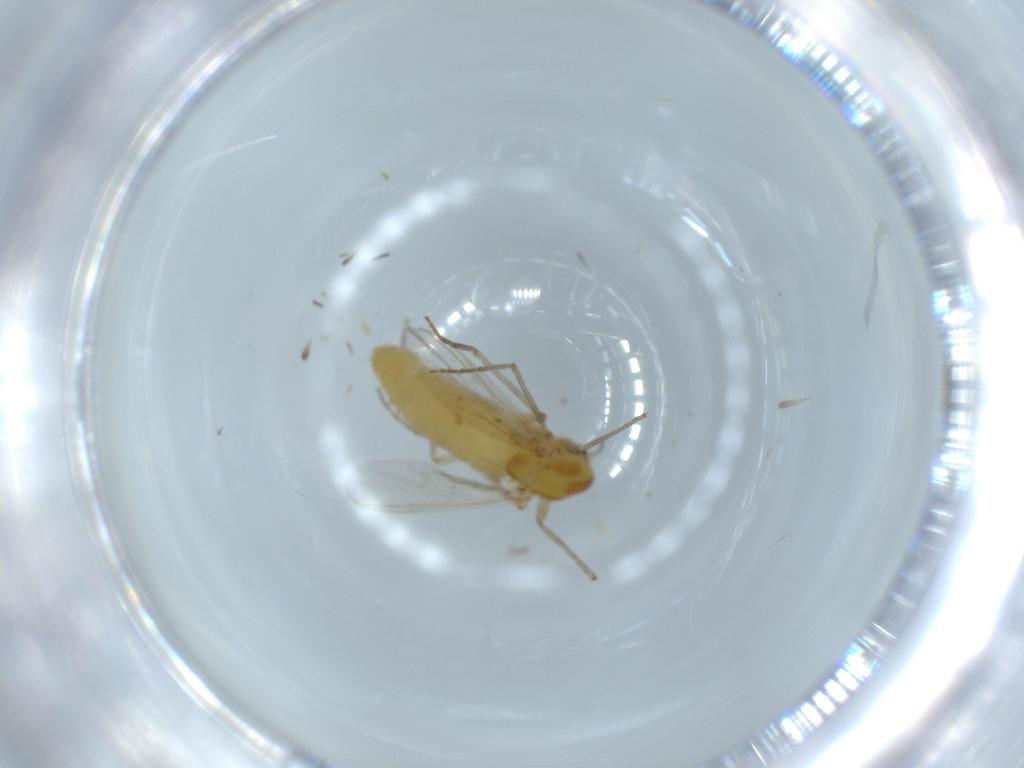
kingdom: Animalia
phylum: Arthropoda
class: Insecta
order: Diptera
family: Chironomidae
